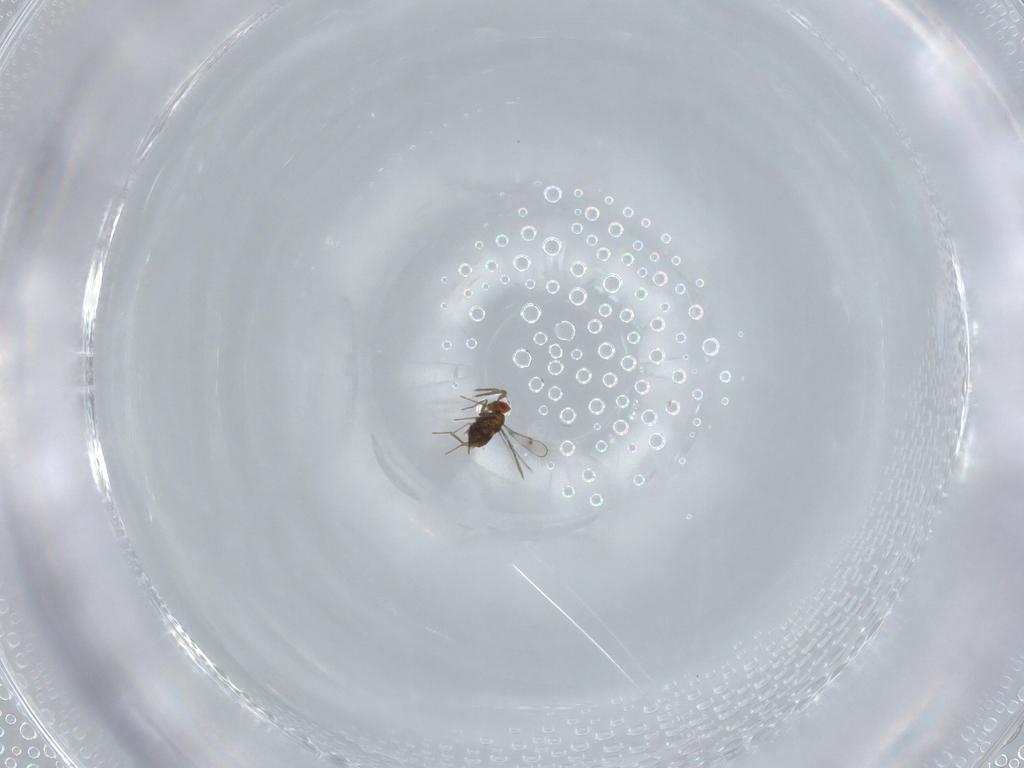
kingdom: Animalia
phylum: Arthropoda
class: Insecta
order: Hymenoptera
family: Trichogrammatidae
